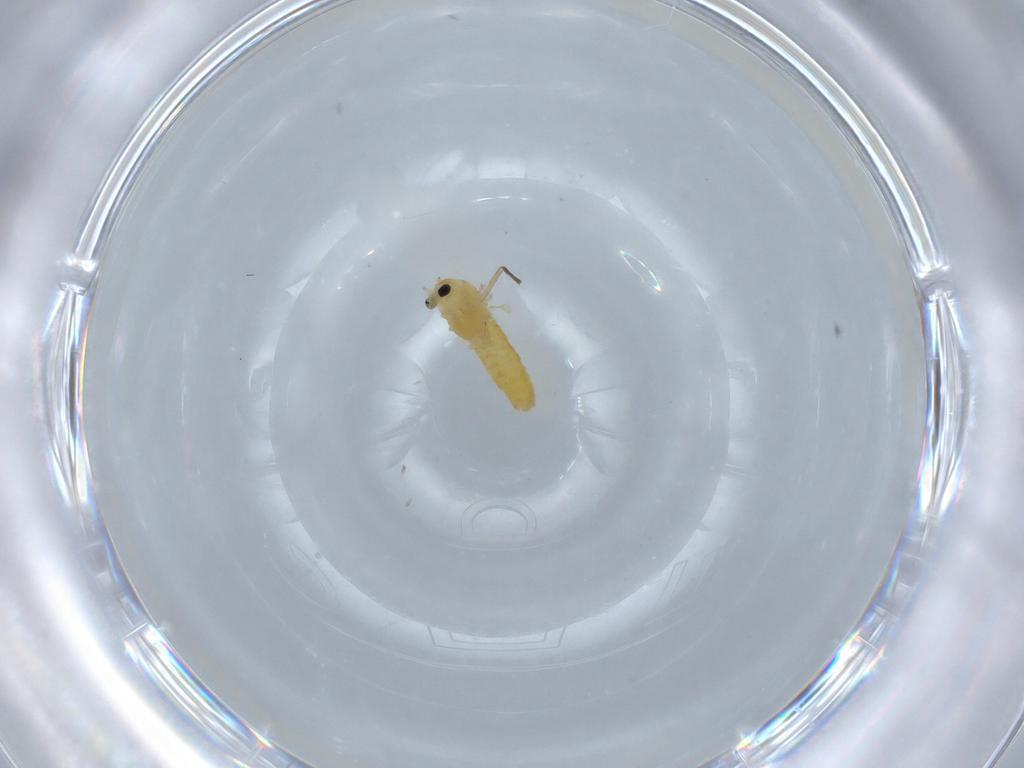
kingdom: Animalia
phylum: Arthropoda
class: Insecta
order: Diptera
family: Chironomidae
